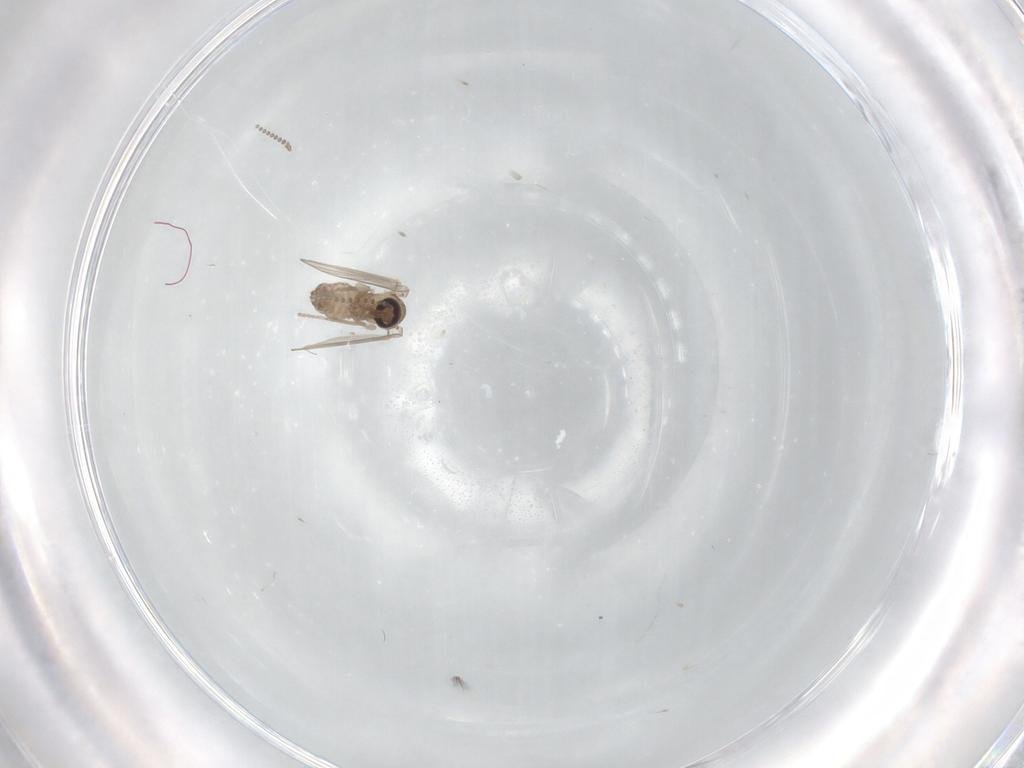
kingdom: Animalia
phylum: Arthropoda
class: Insecta
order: Diptera
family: Psychodidae
